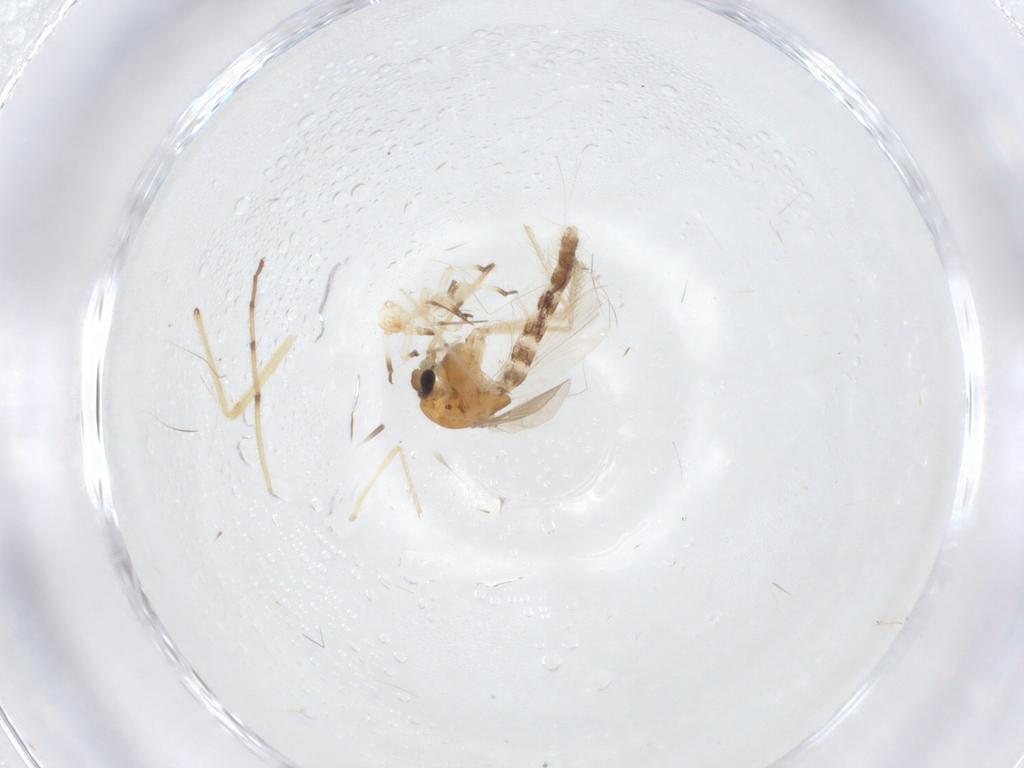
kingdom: Animalia
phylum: Arthropoda
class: Insecta
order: Diptera
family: Chironomidae
